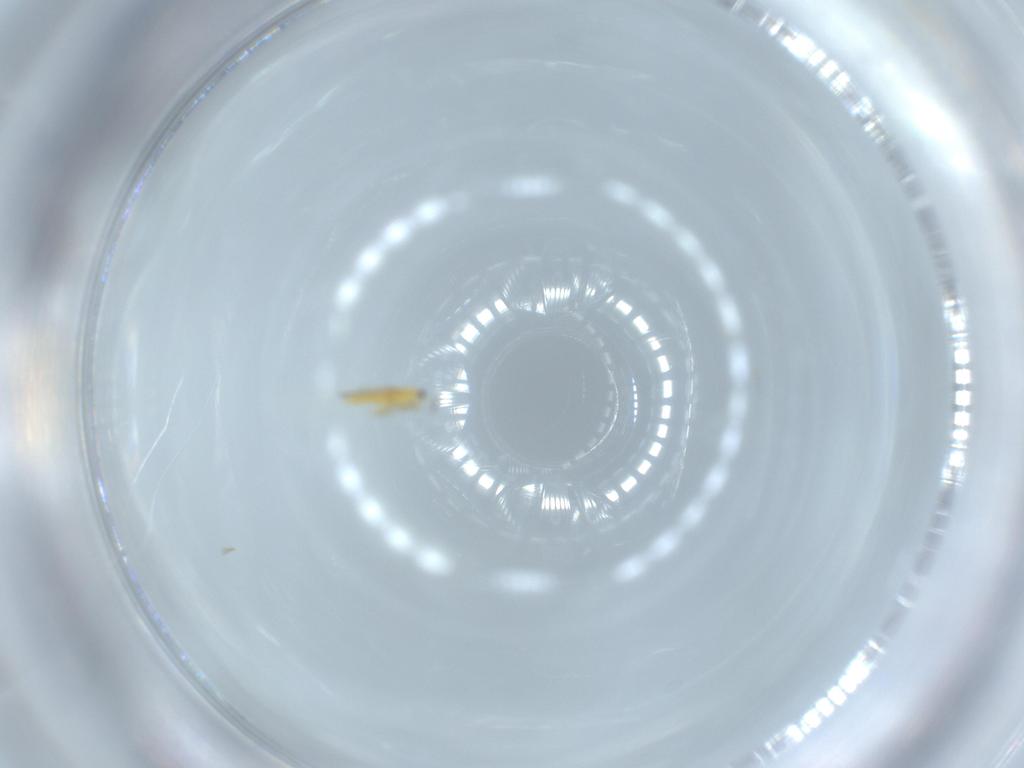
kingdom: Animalia
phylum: Arthropoda
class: Insecta
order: Thysanoptera
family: Thripidae
